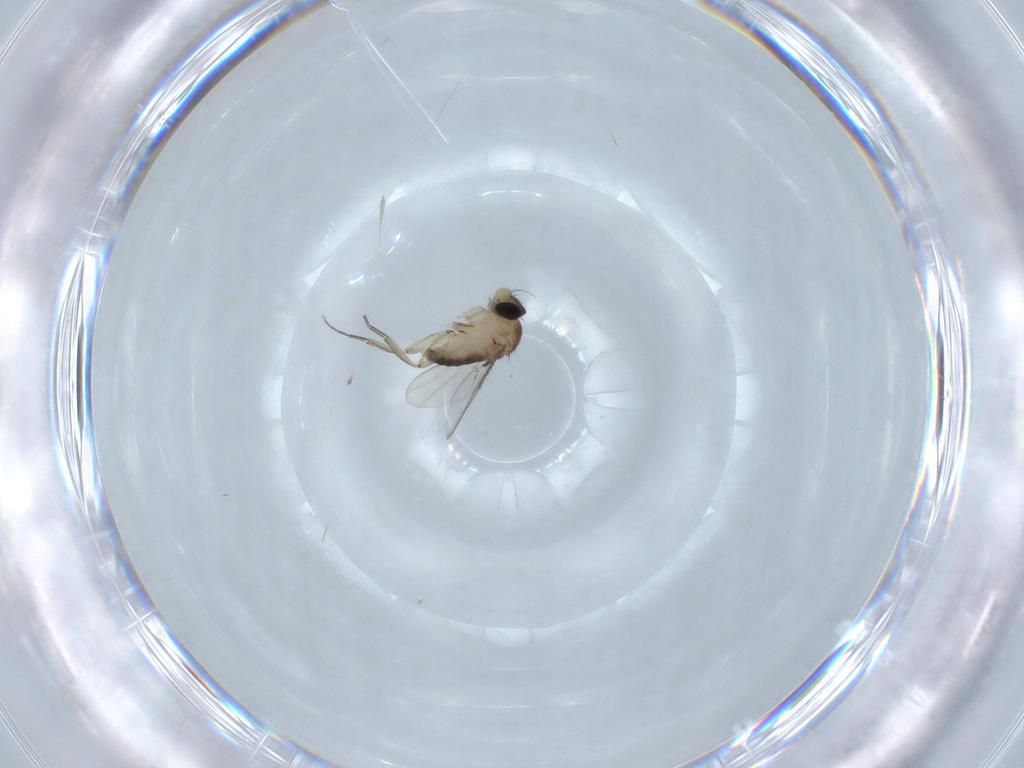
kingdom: Animalia
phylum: Arthropoda
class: Insecta
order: Diptera
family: Phoridae
